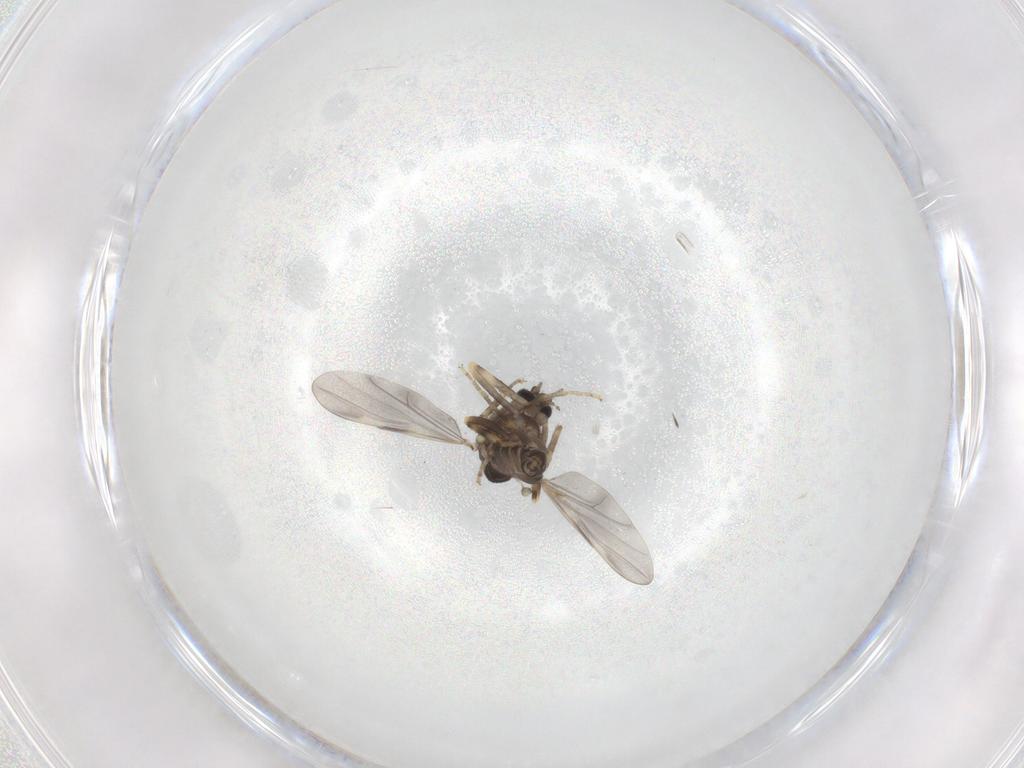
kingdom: Animalia
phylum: Arthropoda
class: Insecta
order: Diptera
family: Ceratopogonidae
